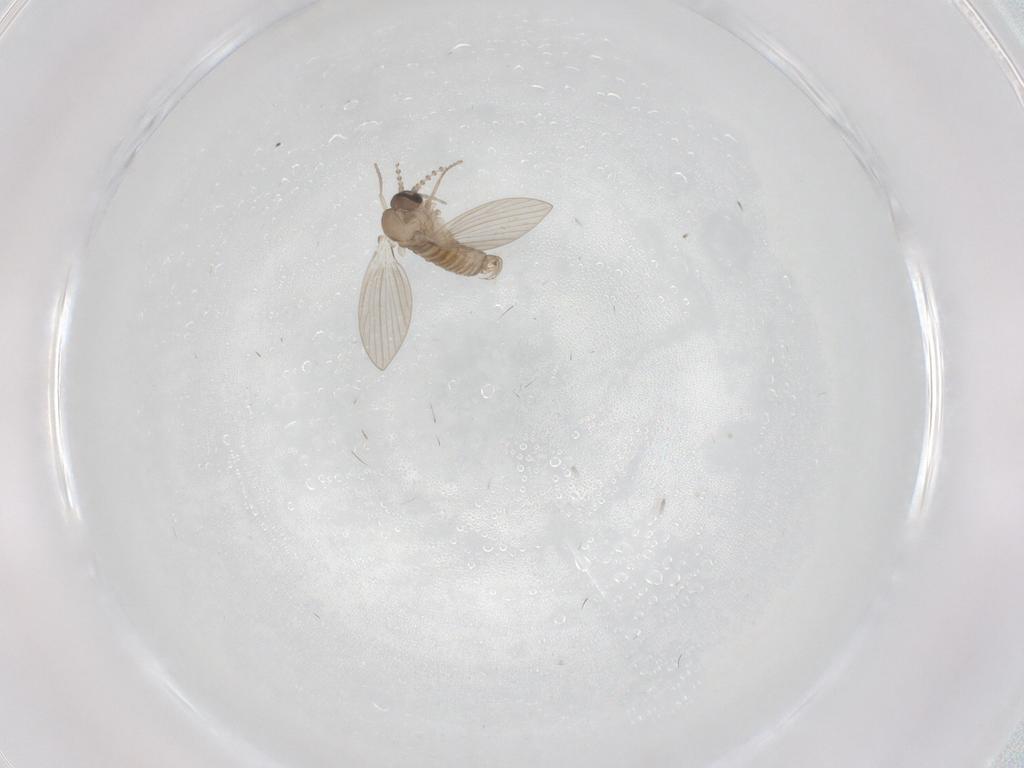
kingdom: Animalia
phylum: Arthropoda
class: Insecta
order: Diptera
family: Psychodidae
